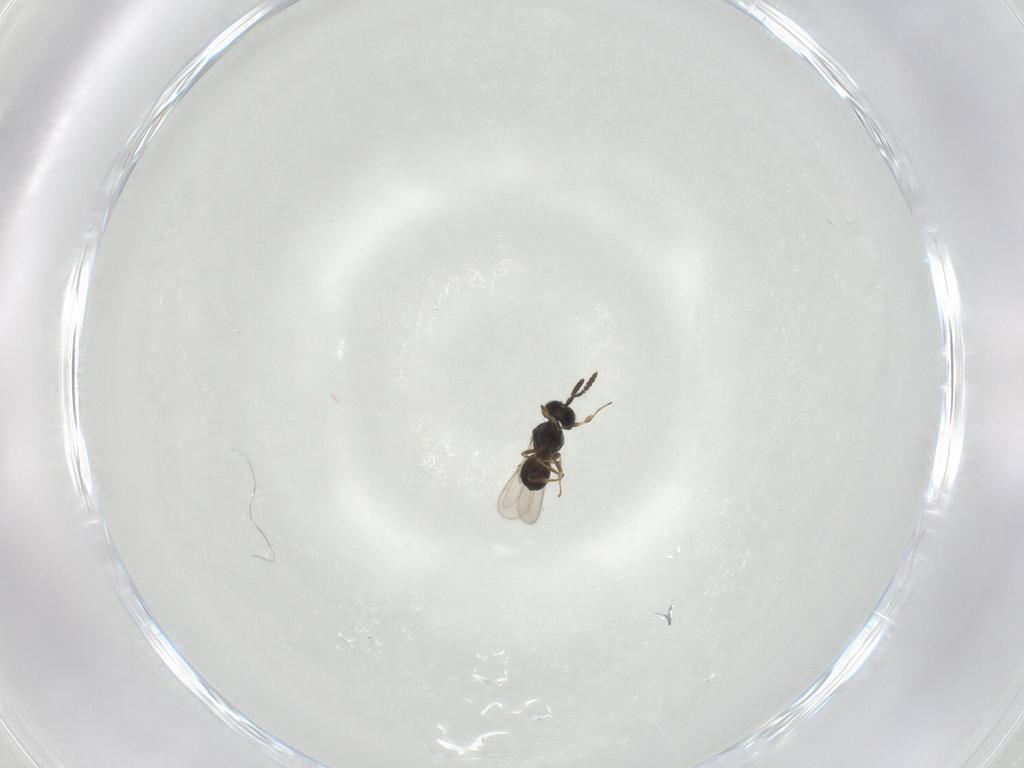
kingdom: Animalia
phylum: Arthropoda
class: Insecta
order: Hymenoptera
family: Scelionidae
